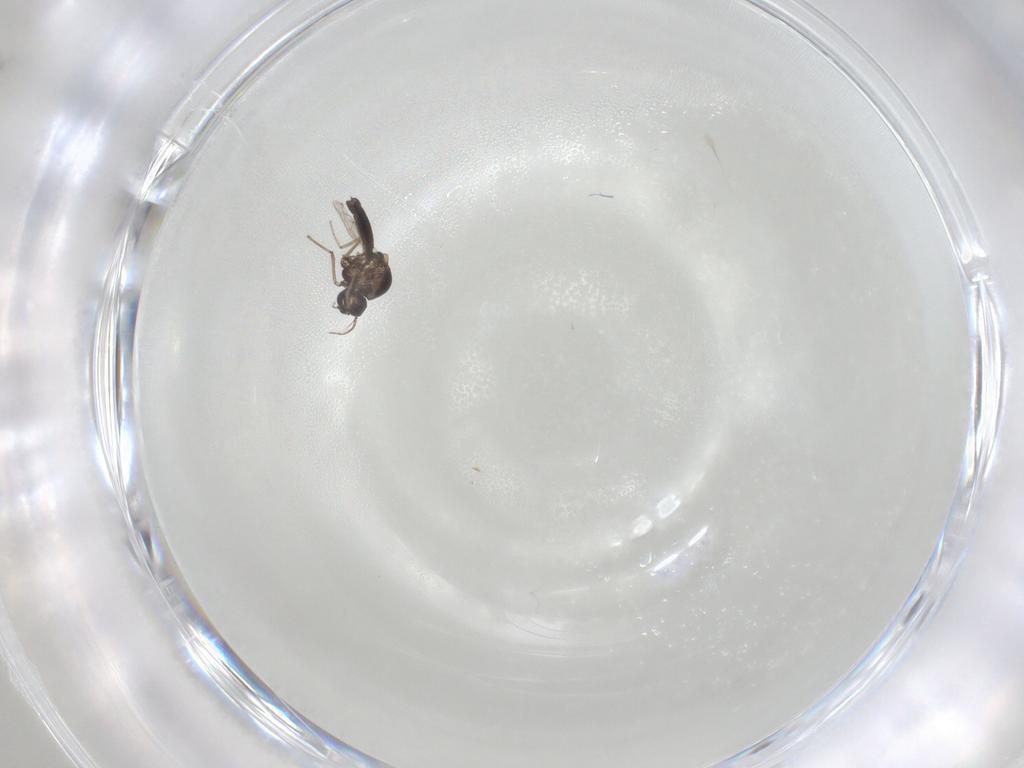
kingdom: Animalia
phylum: Arthropoda
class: Insecta
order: Diptera
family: Ceratopogonidae
